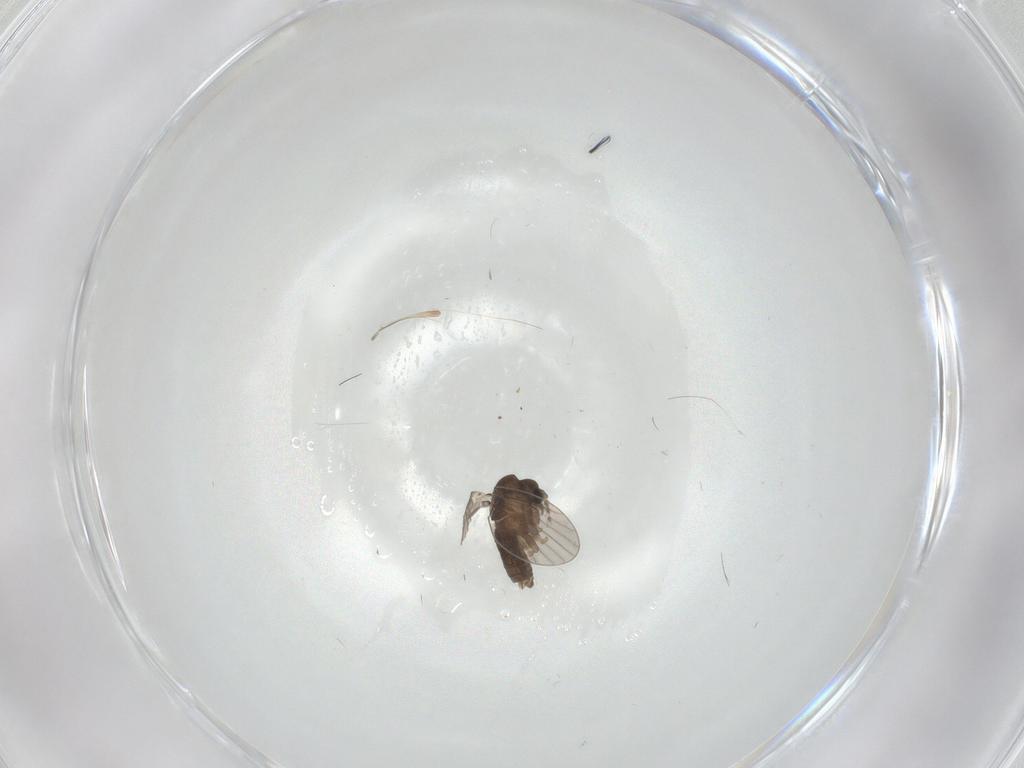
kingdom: Animalia
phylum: Arthropoda
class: Insecta
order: Diptera
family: Sepsidae
